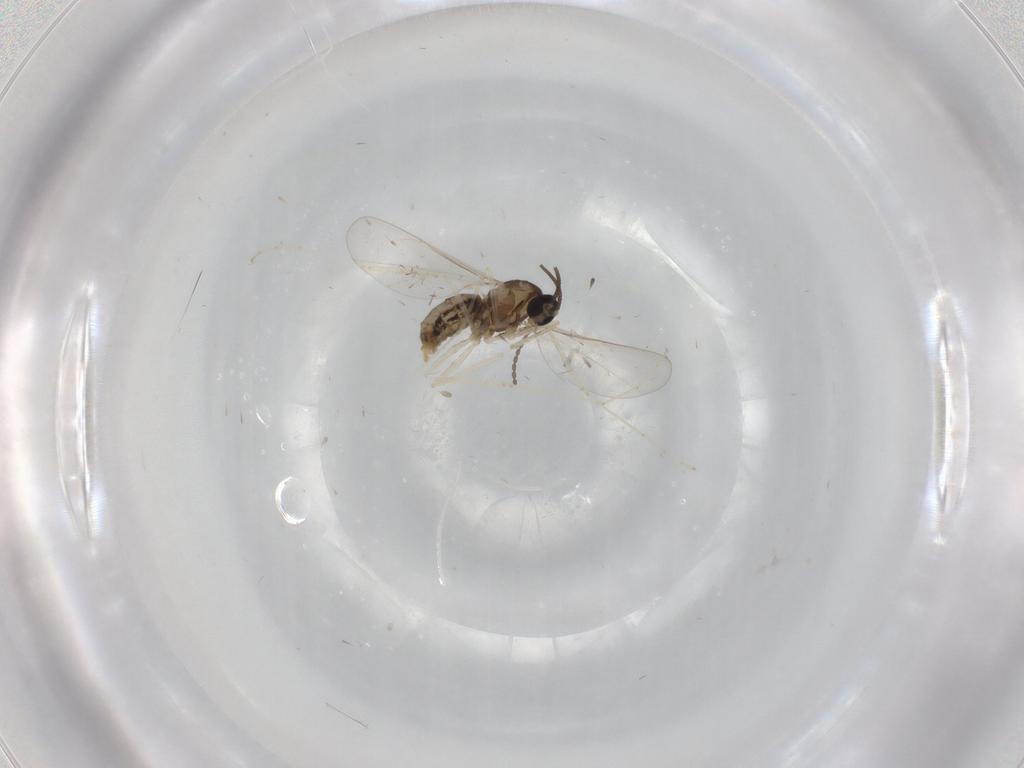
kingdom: Animalia
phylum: Arthropoda
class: Insecta
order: Diptera
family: Cecidomyiidae
